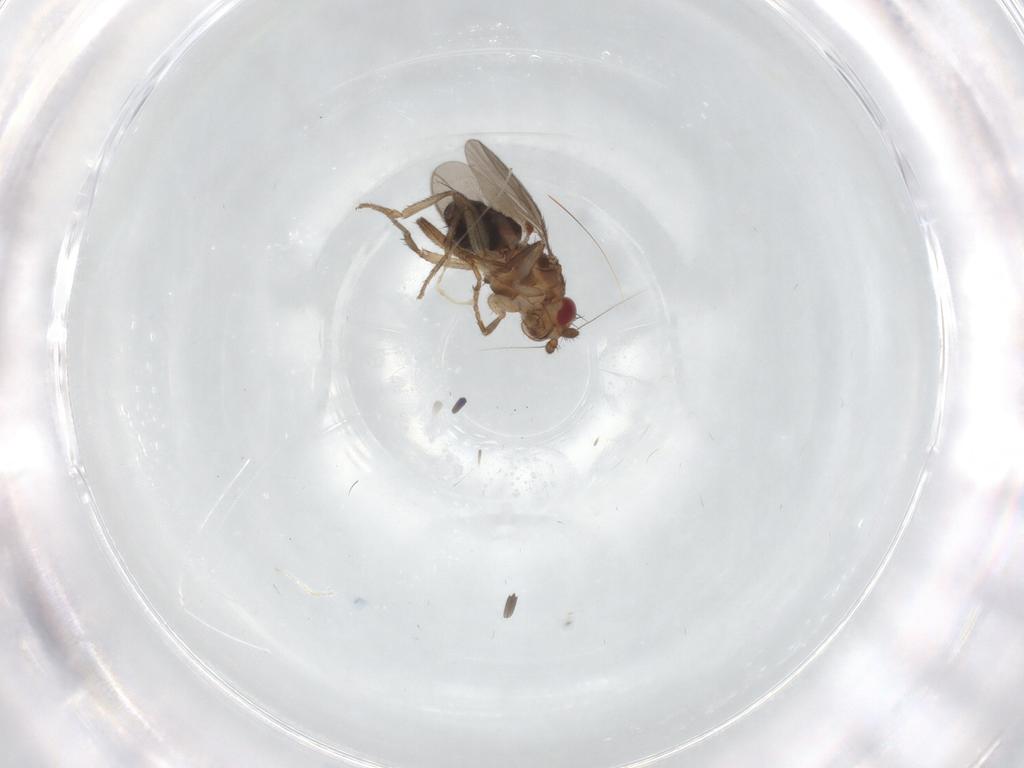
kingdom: Animalia
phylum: Arthropoda
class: Insecta
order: Diptera
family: Sphaeroceridae
